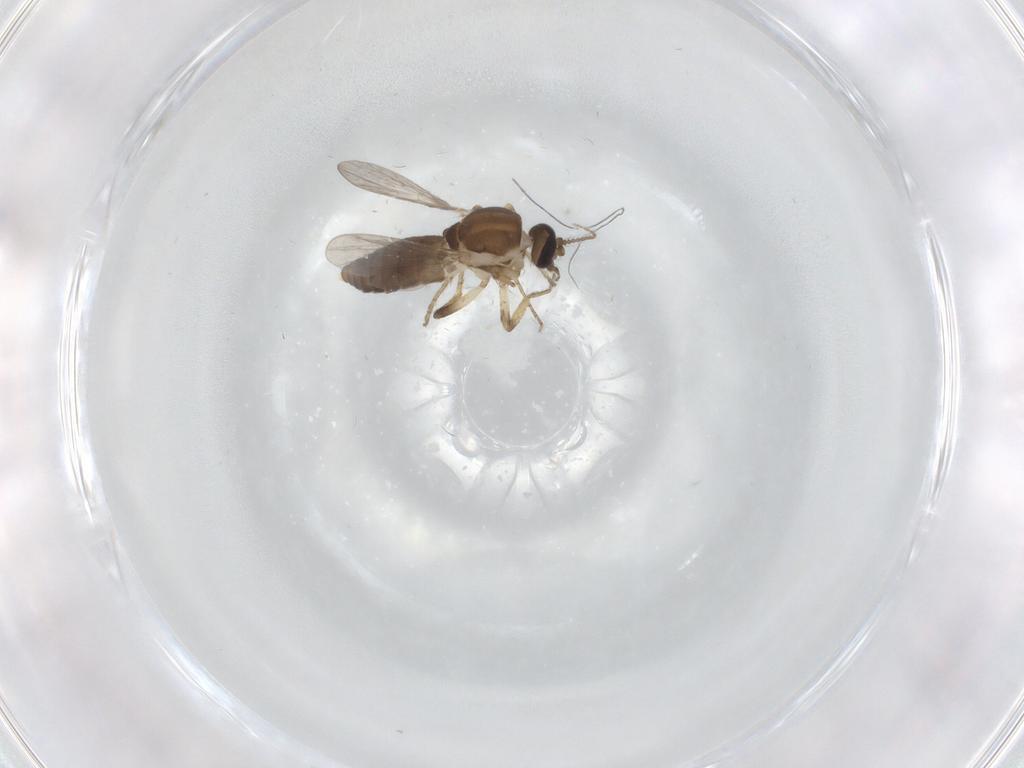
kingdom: Animalia
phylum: Arthropoda
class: Insecta
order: Diptera
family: Ceratopogonidae
